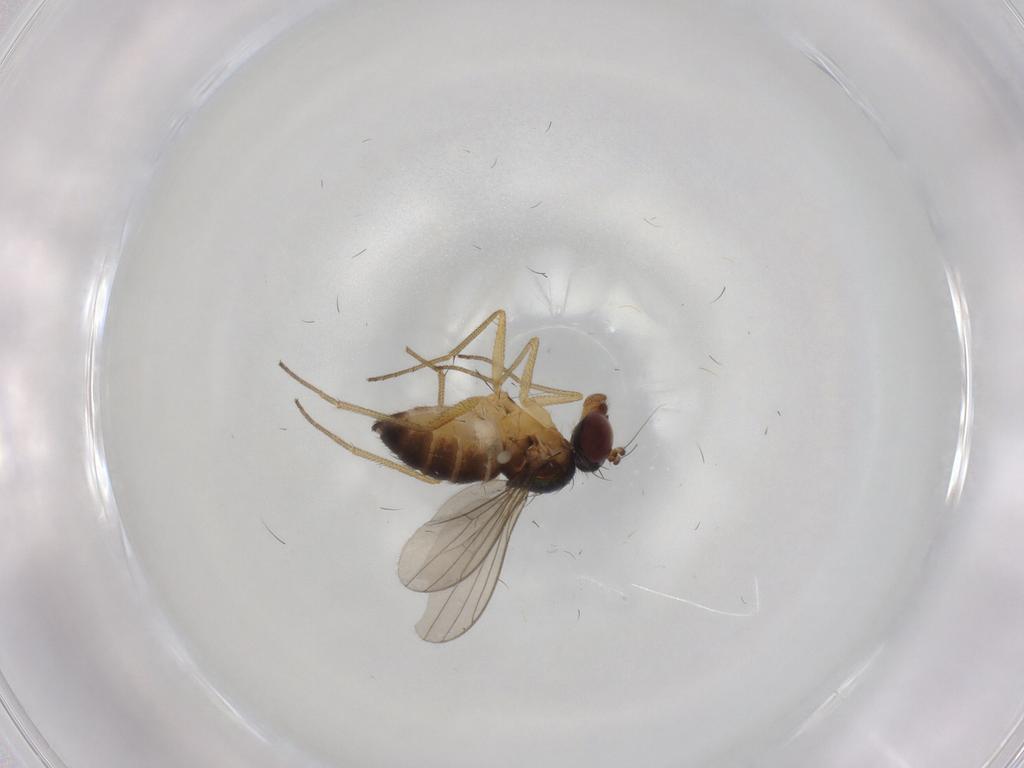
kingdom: Animalia
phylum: Arthropoda
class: Insecta
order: Diptera
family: Dolichopodidae
